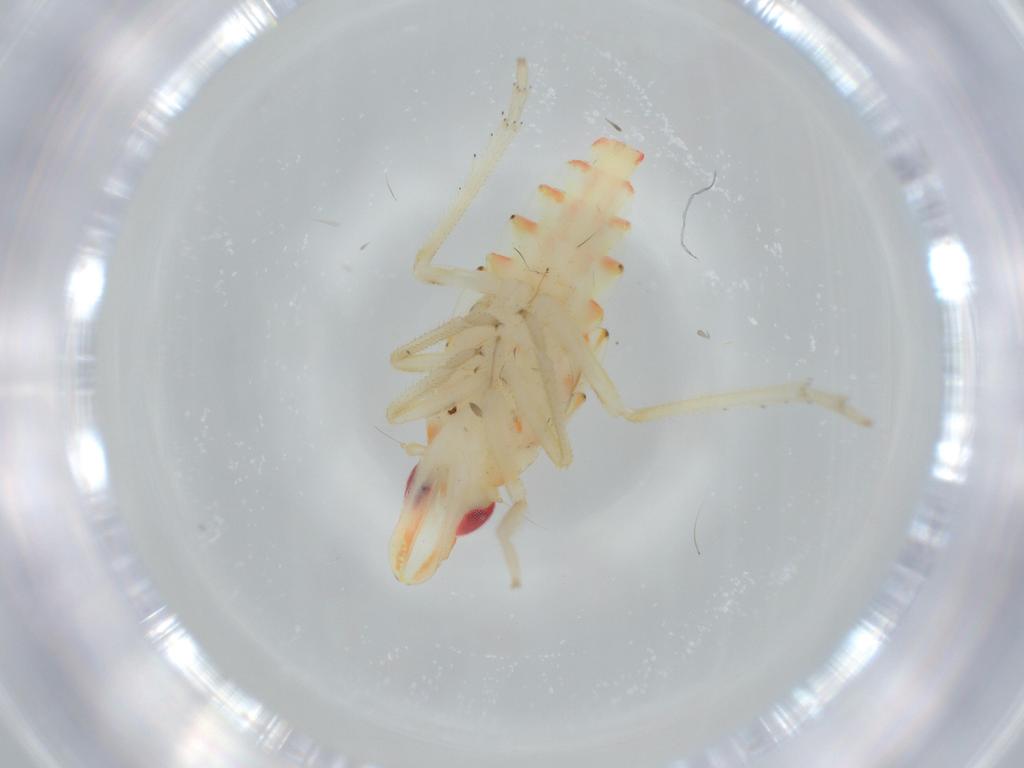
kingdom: Animalia
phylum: Arthropoda
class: Insecta
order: Hemiptera
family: Tropiduchidae
